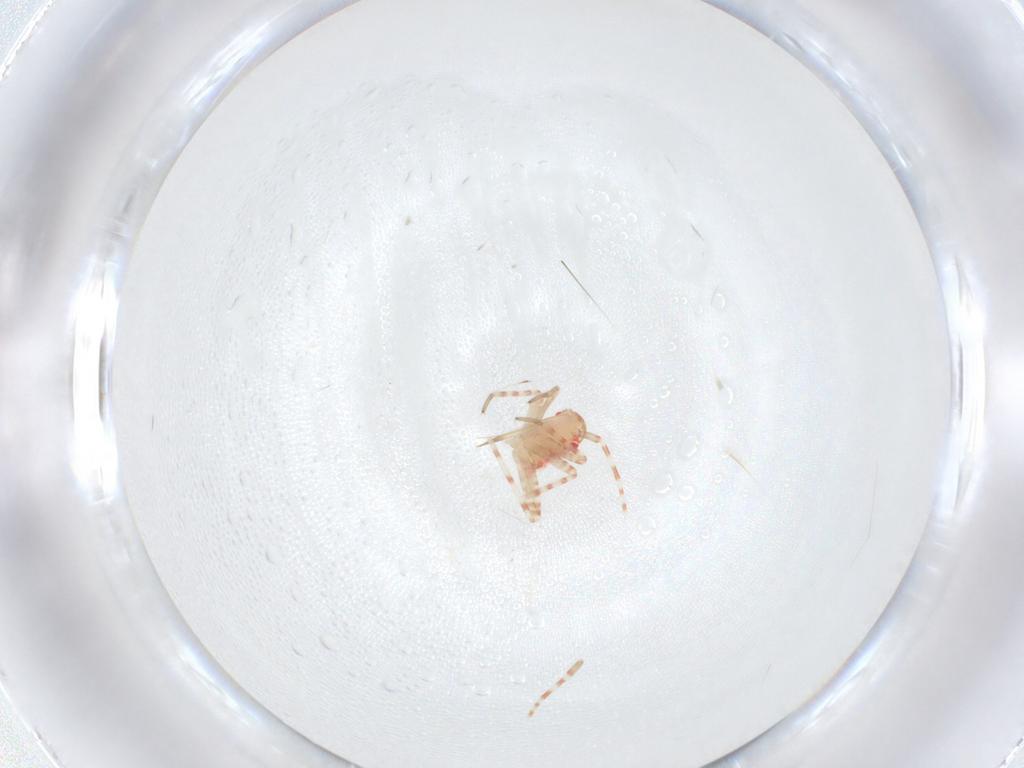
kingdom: Animalia
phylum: Arthropoda
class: Insecta
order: Hemiptera
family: Miridae
